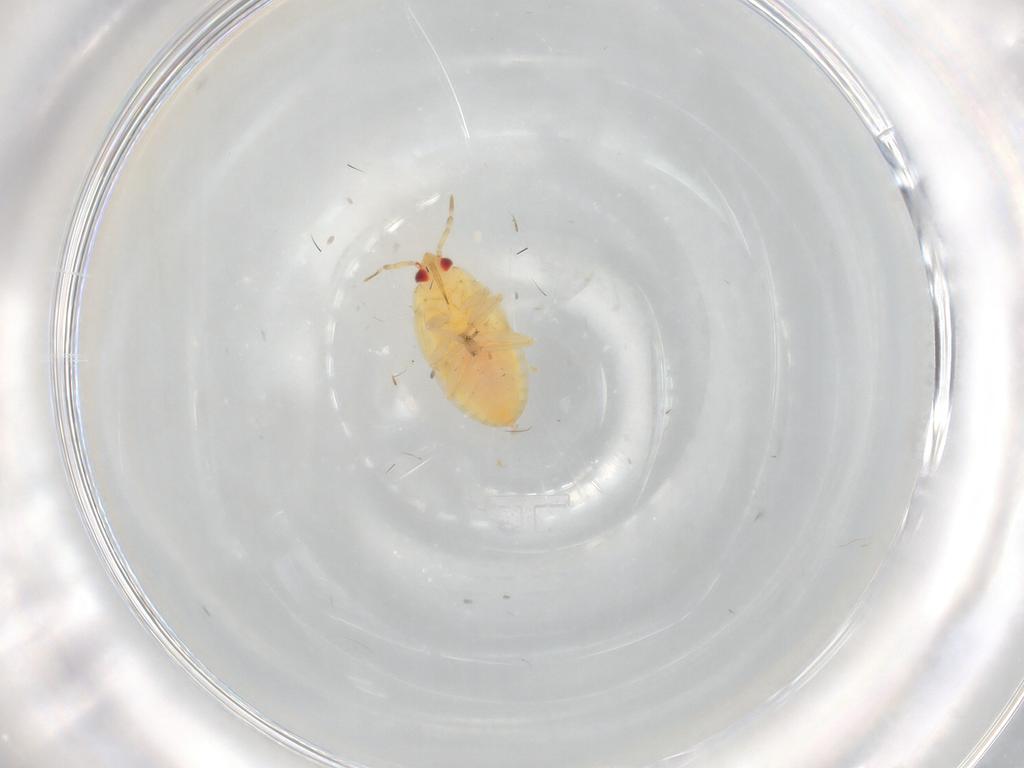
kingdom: Animalia
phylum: Arthropoda
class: Insecta
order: Hemiptera
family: Anthocoridae
